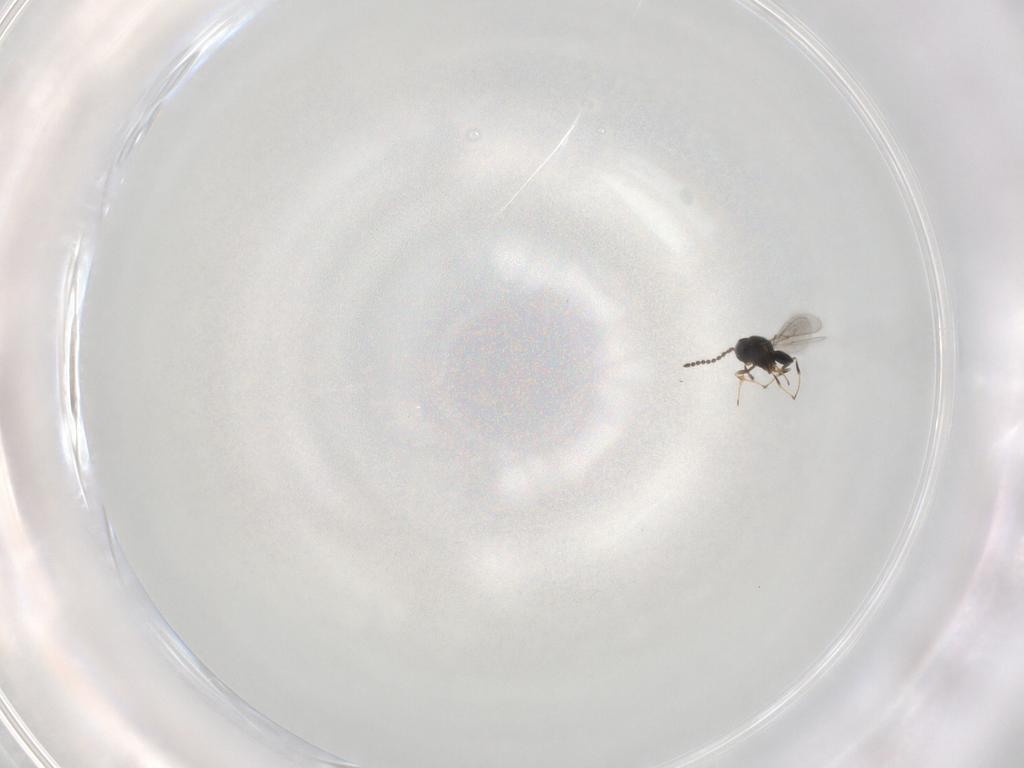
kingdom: Animalia
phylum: Arthropoda
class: Insecta
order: Hymenoptera
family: Scelionidae
